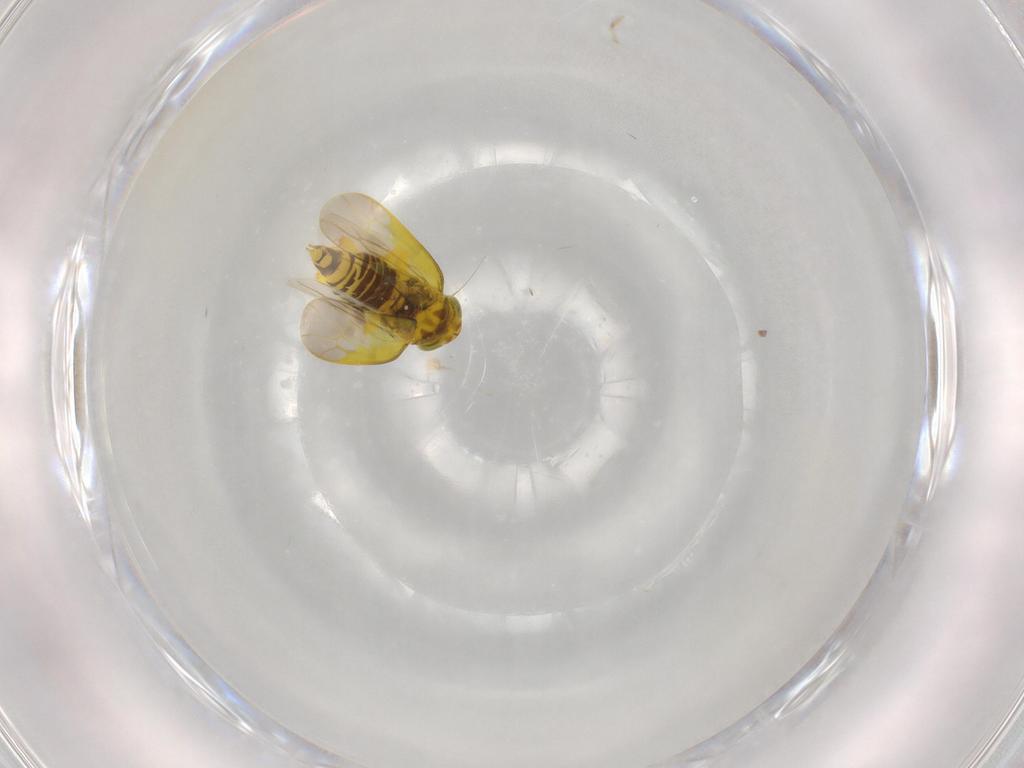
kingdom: Animalia
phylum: Arthropoda
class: Insecta
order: Hemiptera
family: Cicadellidae
